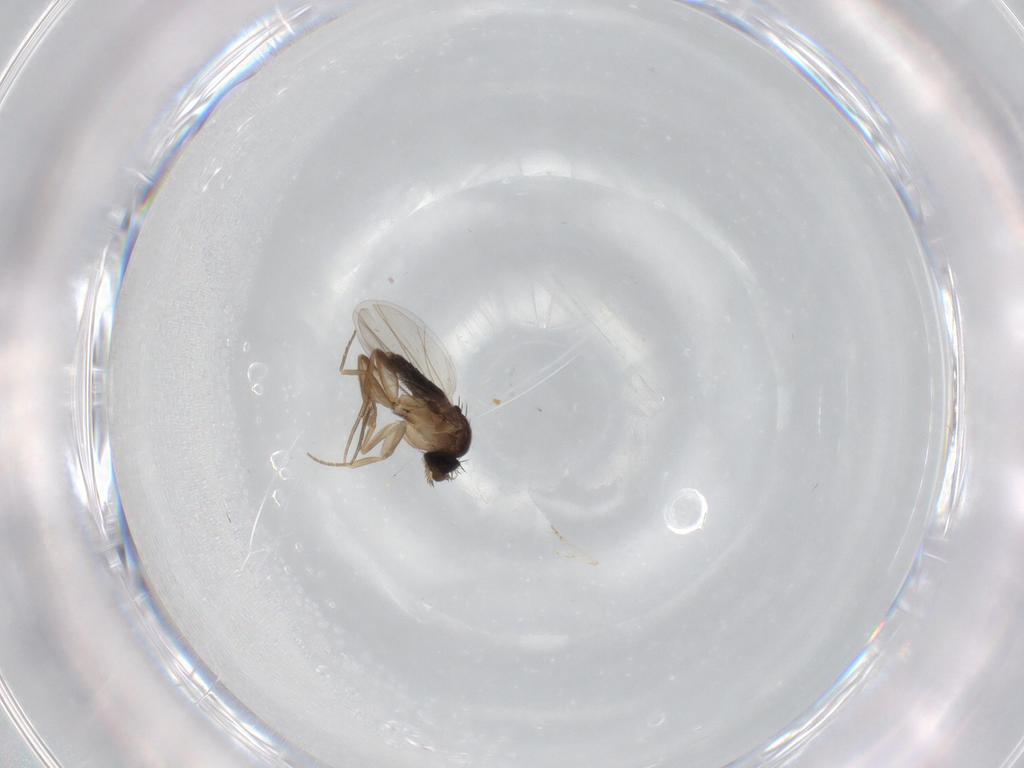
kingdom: Animalia
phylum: Arthropoda
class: Insecta
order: Diptera
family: Phoridae
